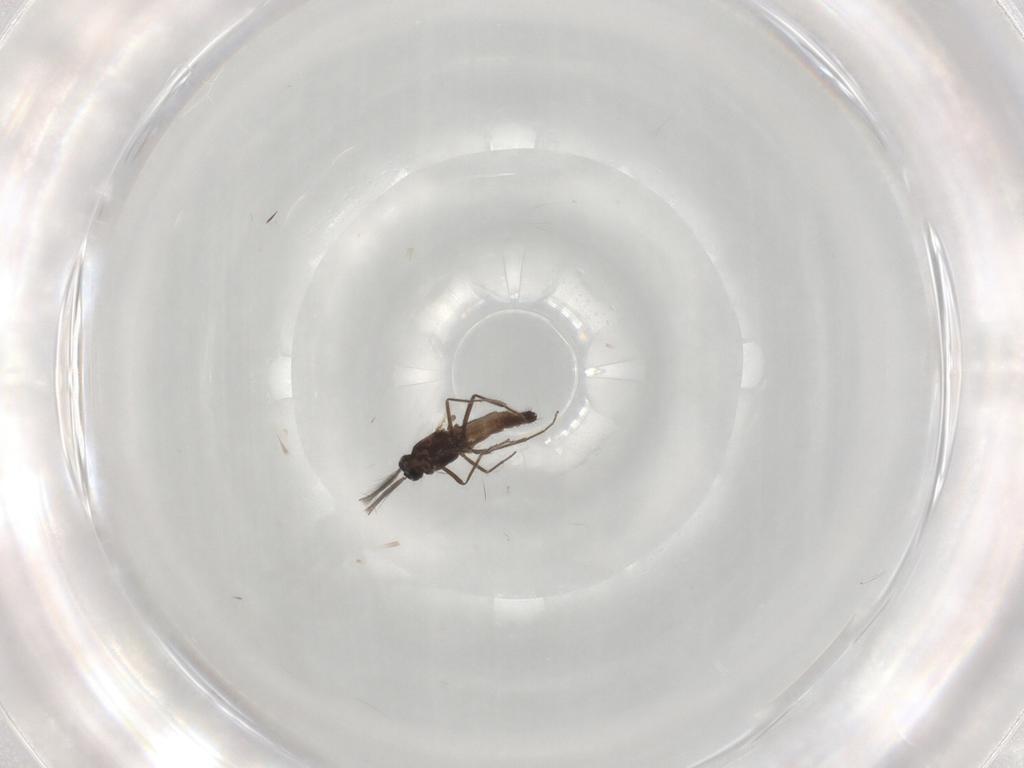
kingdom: Animalia
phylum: Arthropoda
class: Insecta
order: Diptera
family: Ceratopogonidae
